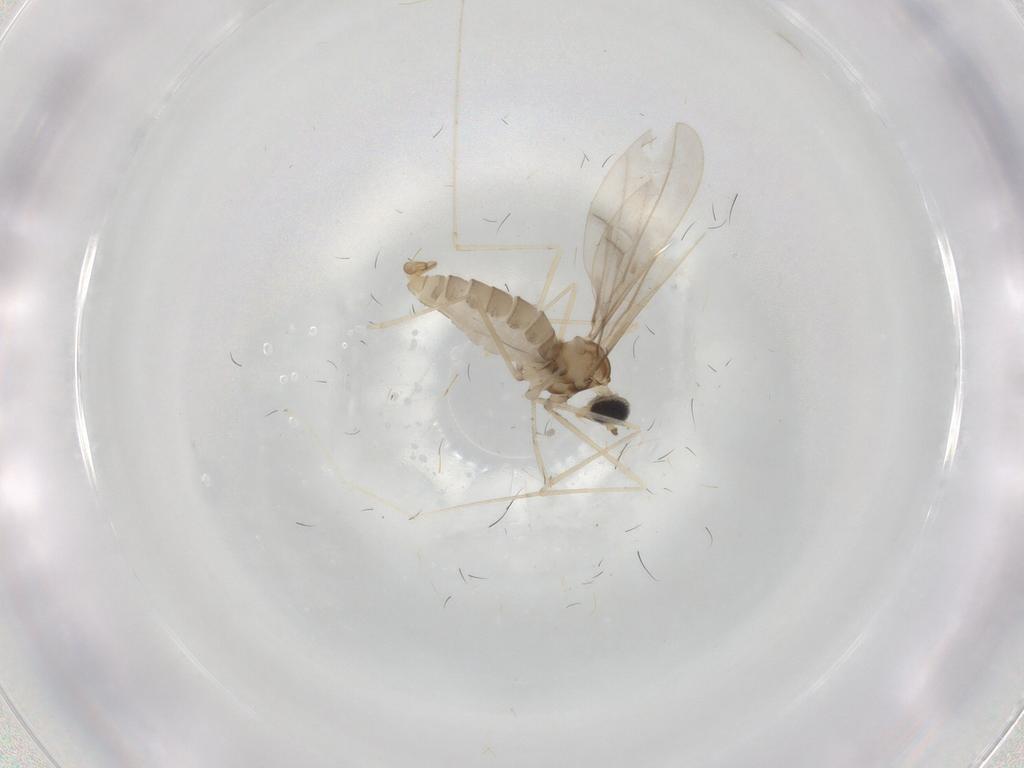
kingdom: Animalia
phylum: Arthropoda
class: Insecta
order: Diptera
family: Cecidomyiidae
